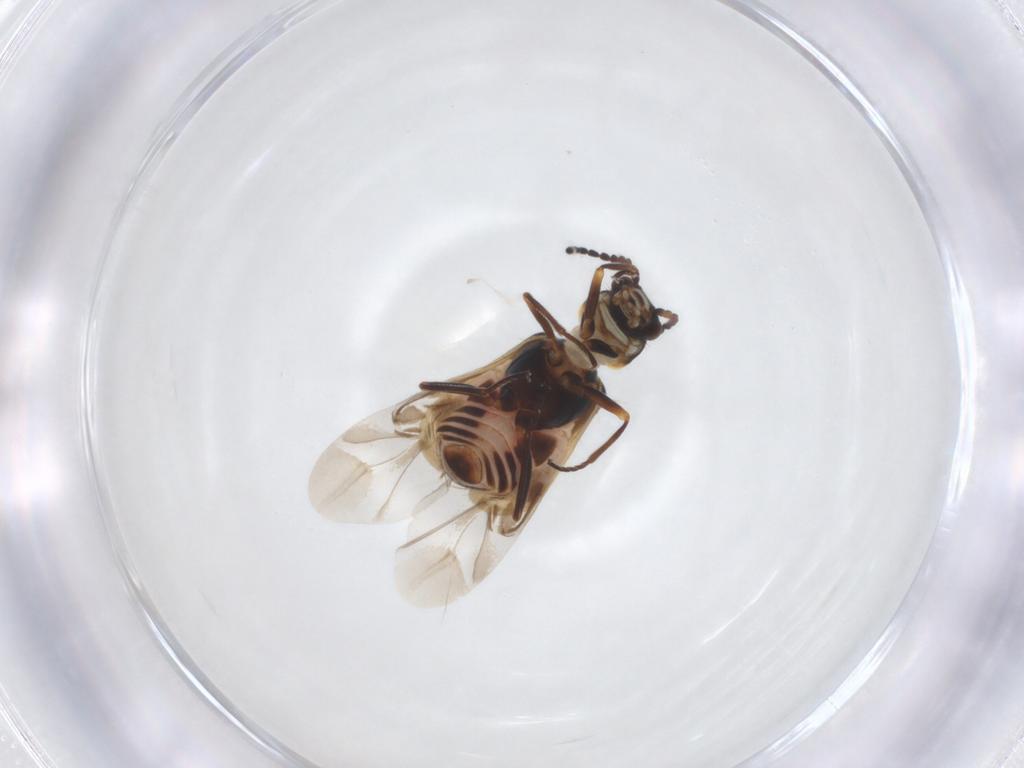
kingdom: Animalia
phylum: Arthropoda
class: Insecta
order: Coleoptera
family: Melyridae
